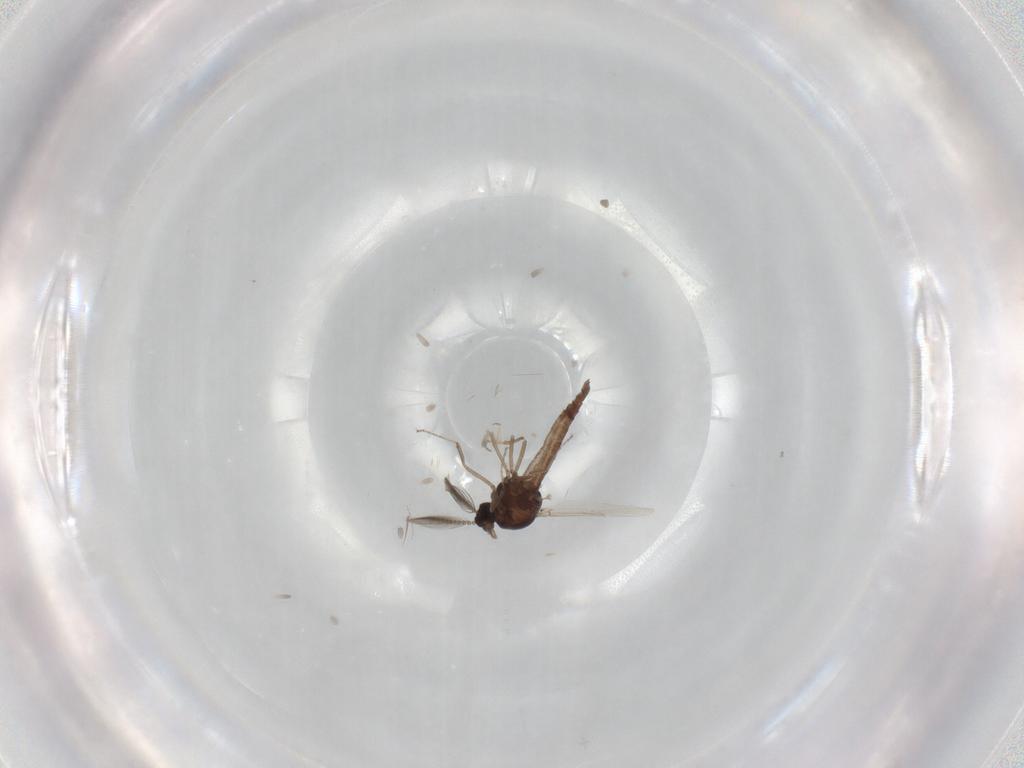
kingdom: Animalia
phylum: Arthropoda
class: Insecta
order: Diptera
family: Ceratopogonidae
